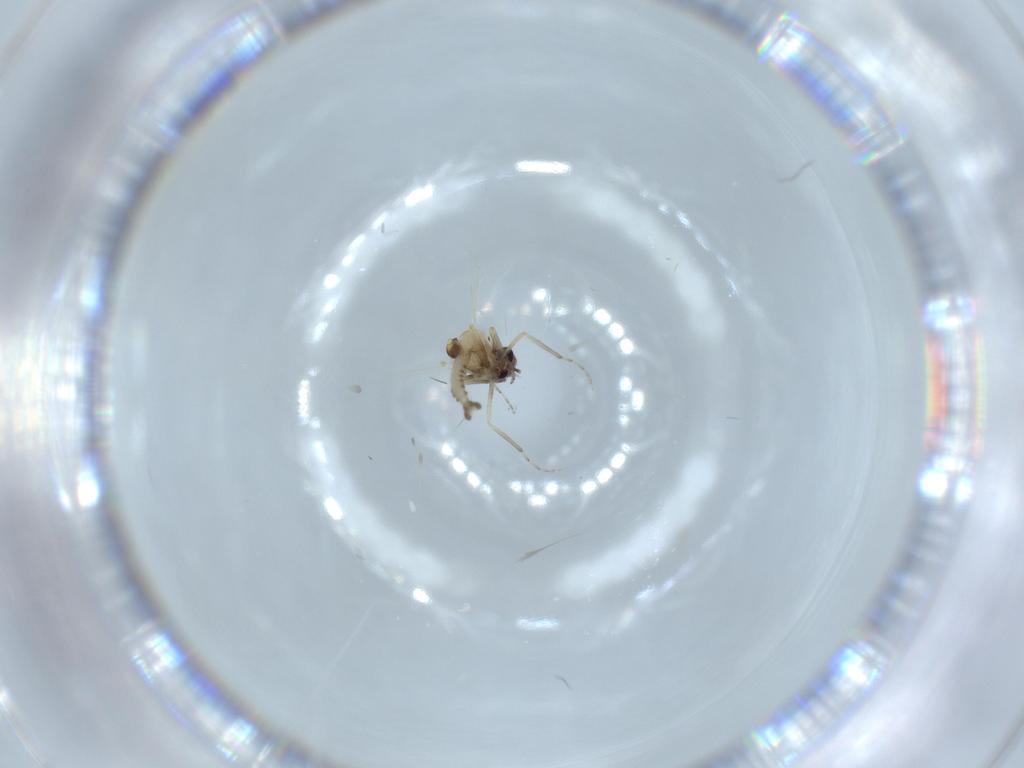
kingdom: Animalia
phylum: Arthropoda
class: Insecta
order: Diptera
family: Ceratopogonidae
